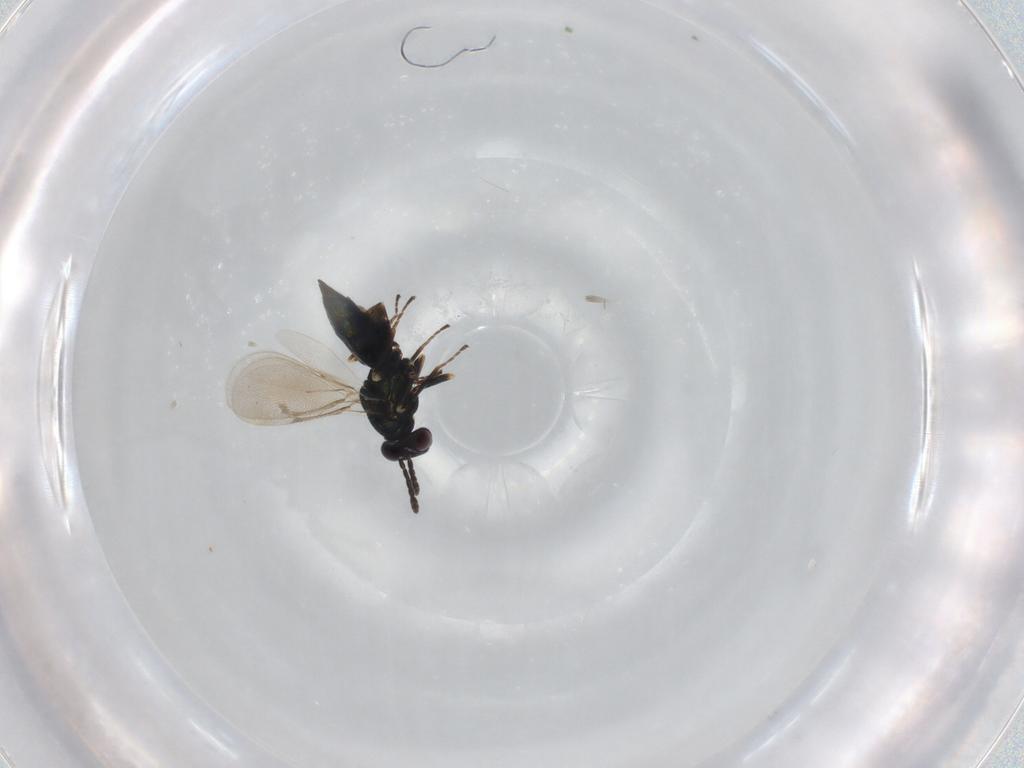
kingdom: Animalia
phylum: Arthropoda
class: Insecta
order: Hymenoptera
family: Eulophidae
